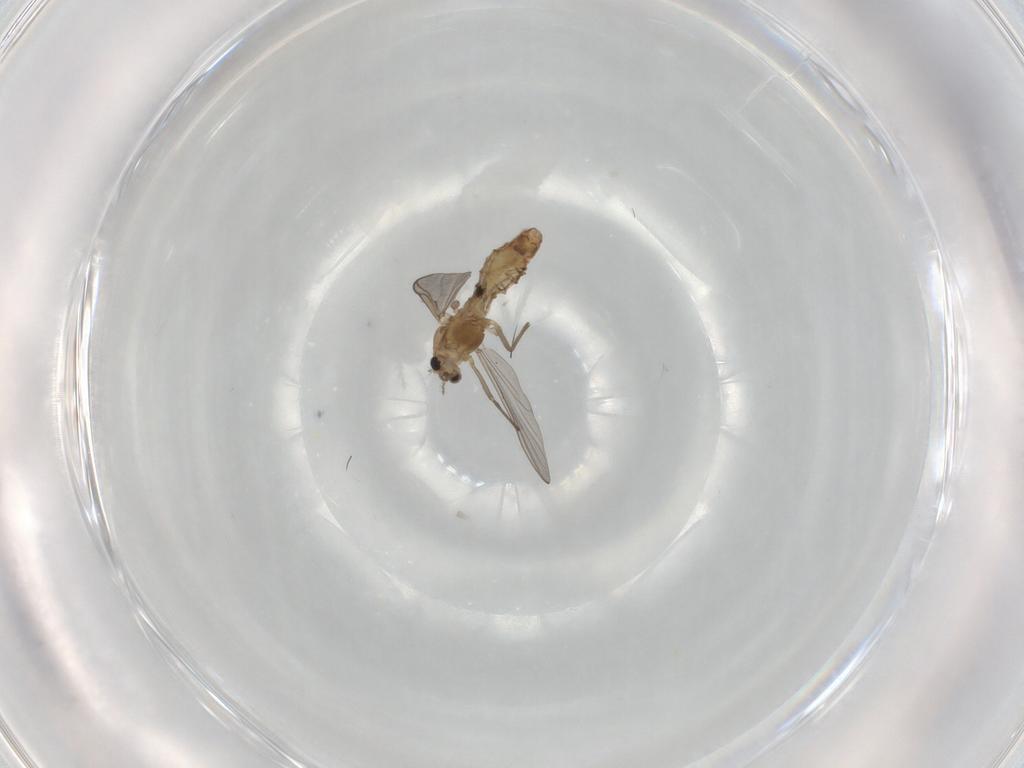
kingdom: Animalia
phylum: Arthropoda
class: Insecta
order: Diptera
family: Chironomidae
